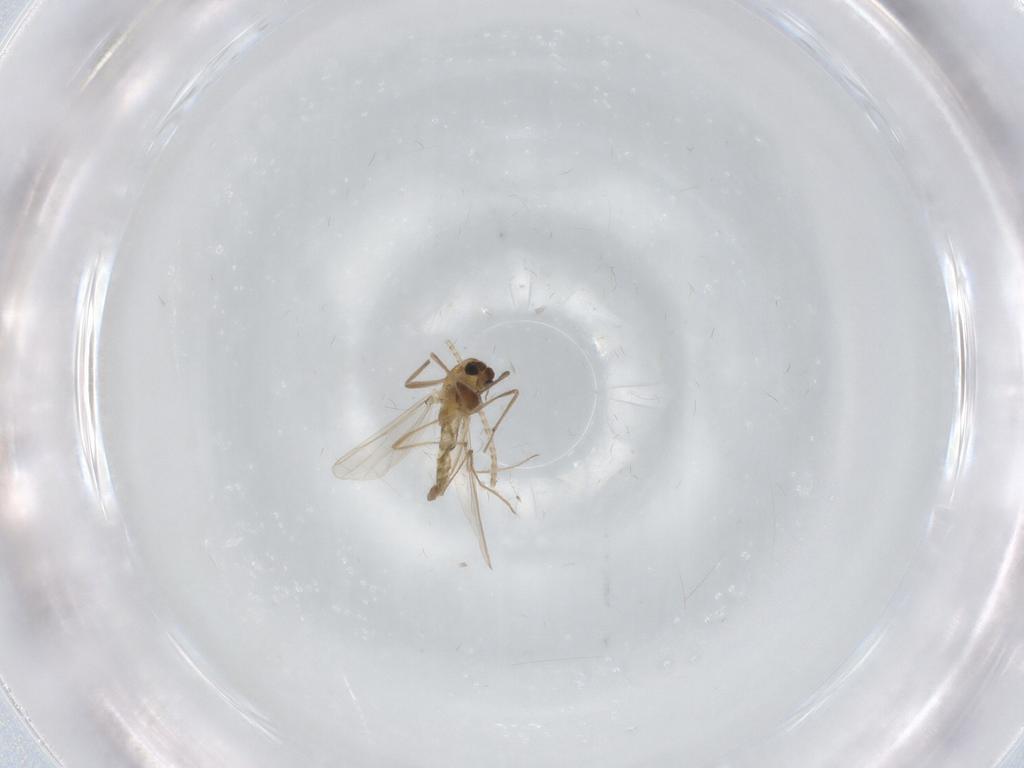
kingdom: Animalia
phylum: Arthropoda
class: Insecta
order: Diptera
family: Chironomidae
